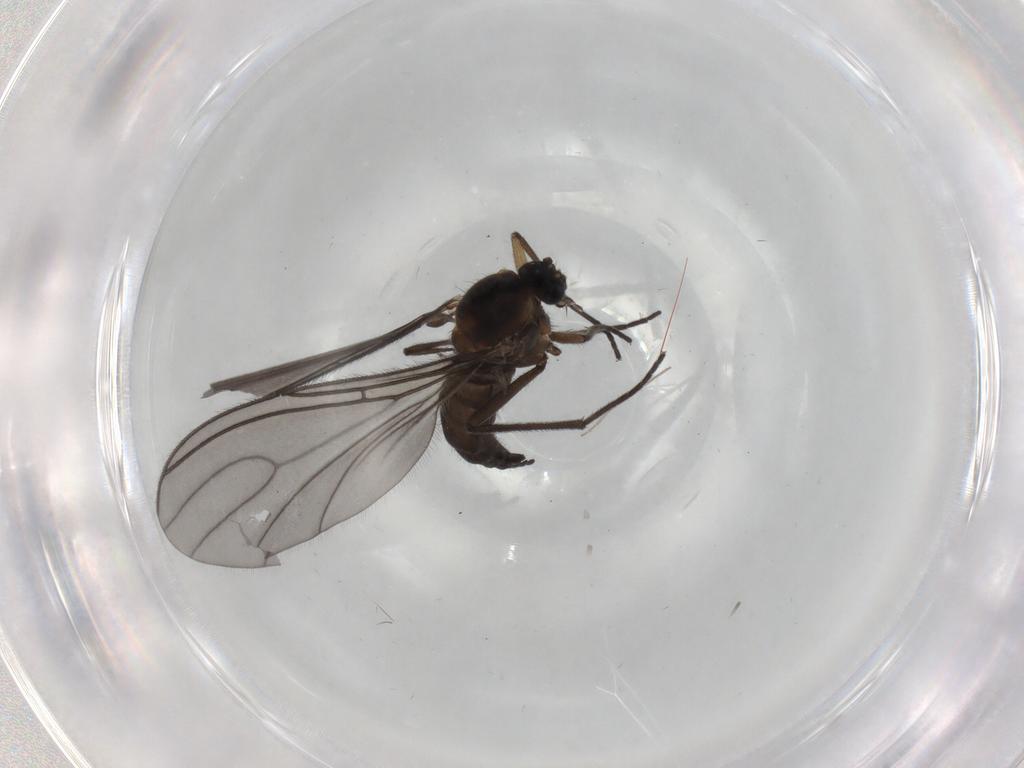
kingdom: Animalia
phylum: Arthropoda
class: Insecta
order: Diptera
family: Sciaridae
